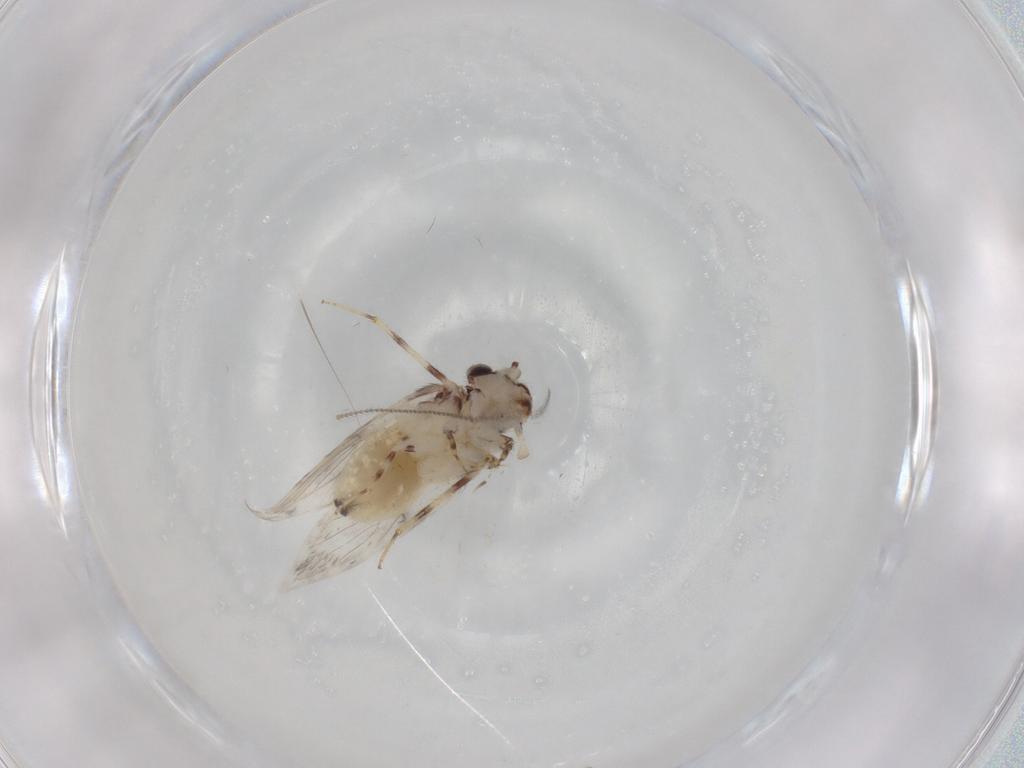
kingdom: Animalia
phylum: Arthropoda
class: Insecta
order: Psocodea
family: Lepidopsocidae
